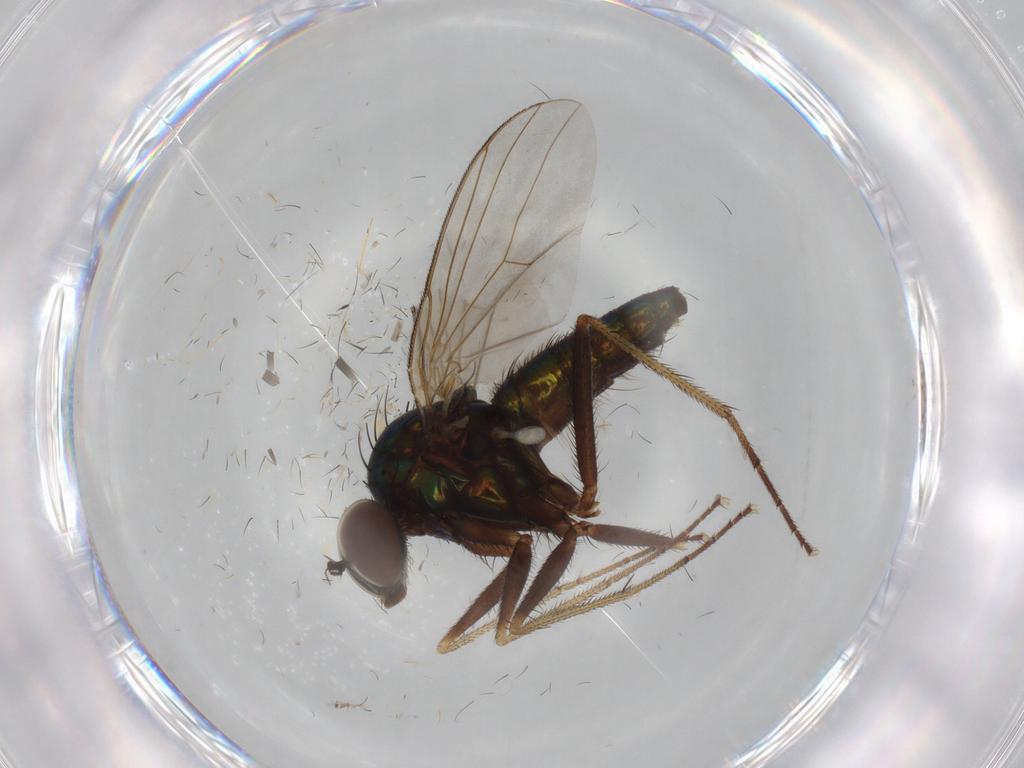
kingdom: Animalia
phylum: Arthropoda
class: Insecta
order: Diptera
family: Dolichopodidae
